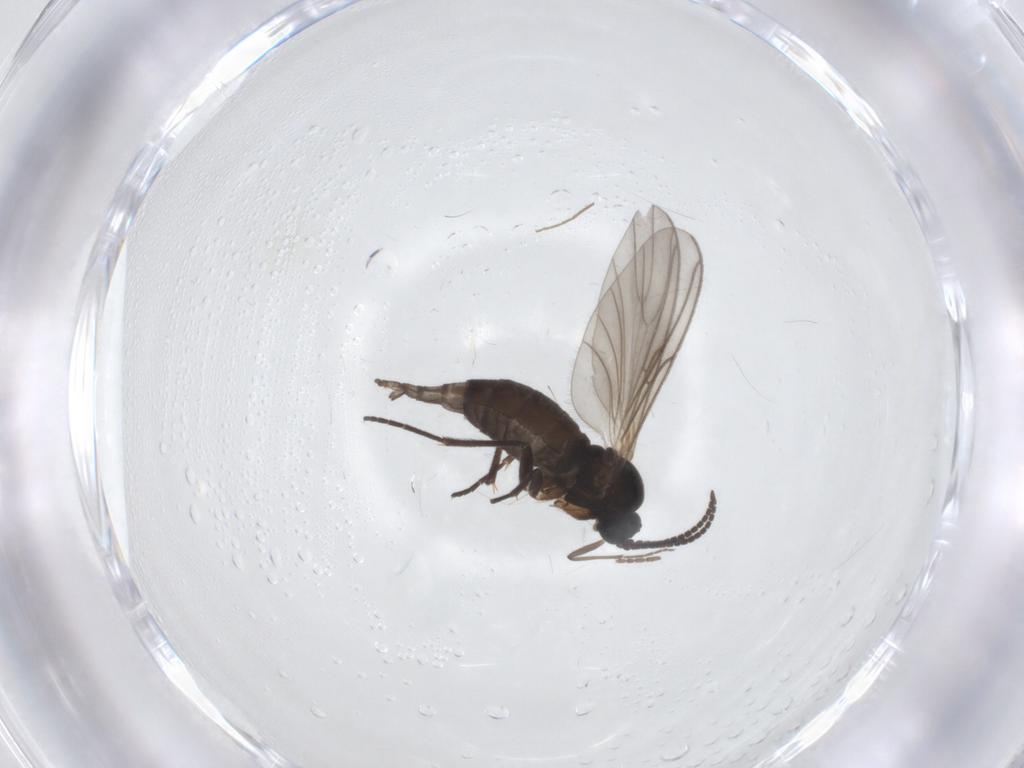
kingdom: Animalia
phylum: Arthropoda
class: Insecta
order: Diptera
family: Sciaridae
